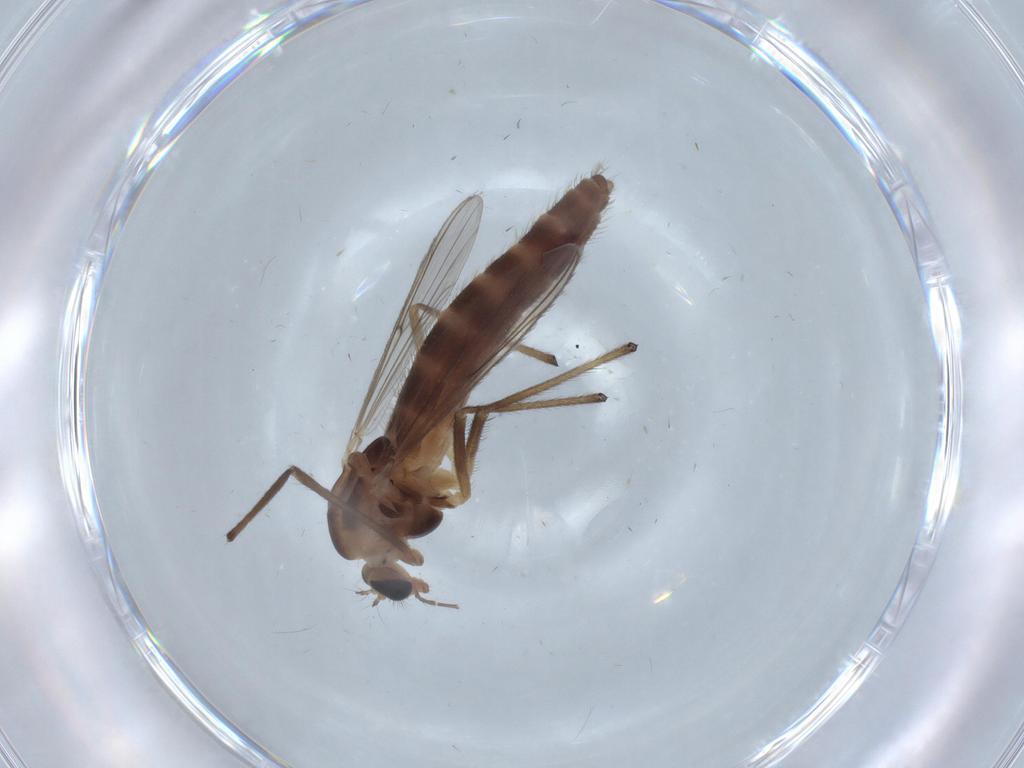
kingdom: Animalia
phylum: Arthropoda
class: Insecta
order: Diptera
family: Chironomidae
